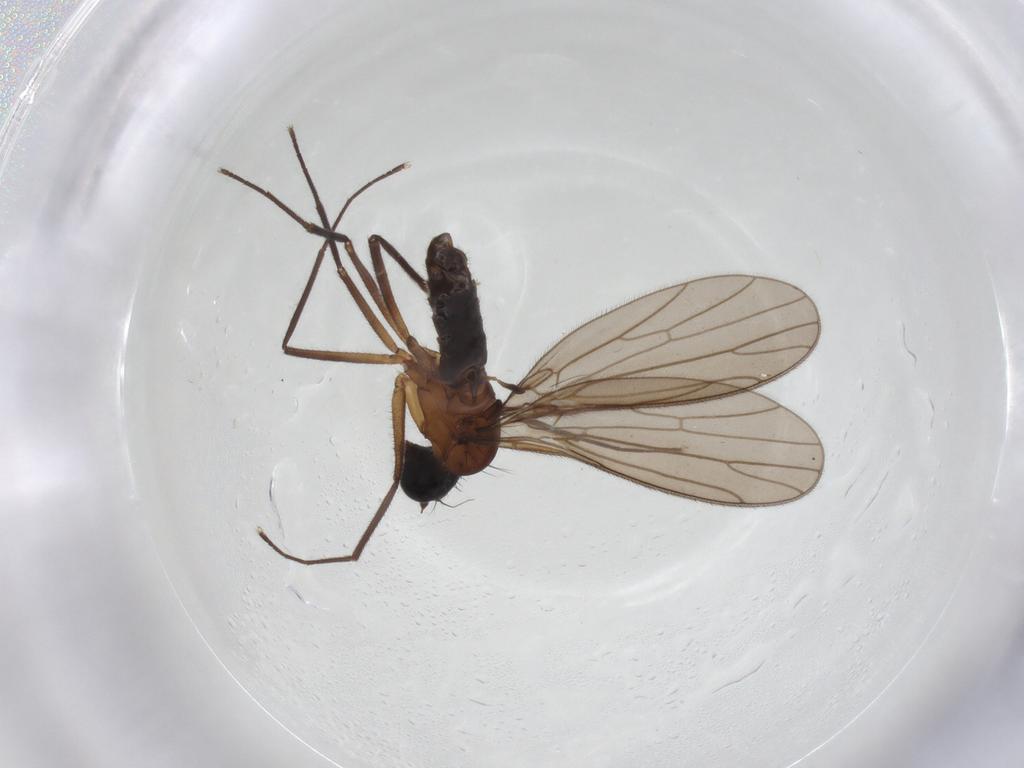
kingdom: Animalia
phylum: Arthropoda
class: Insecta
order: Diptera
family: Empididae
